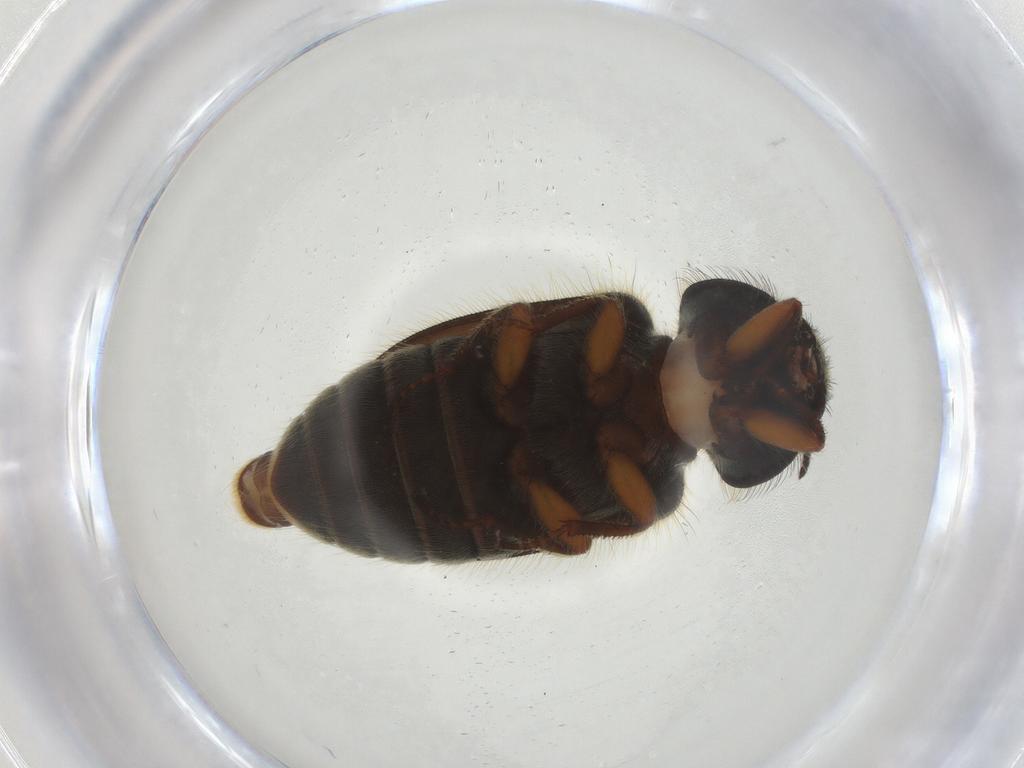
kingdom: Animalia
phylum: Arthropoda
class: Insecta
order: Coleoptera
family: Melyridae
